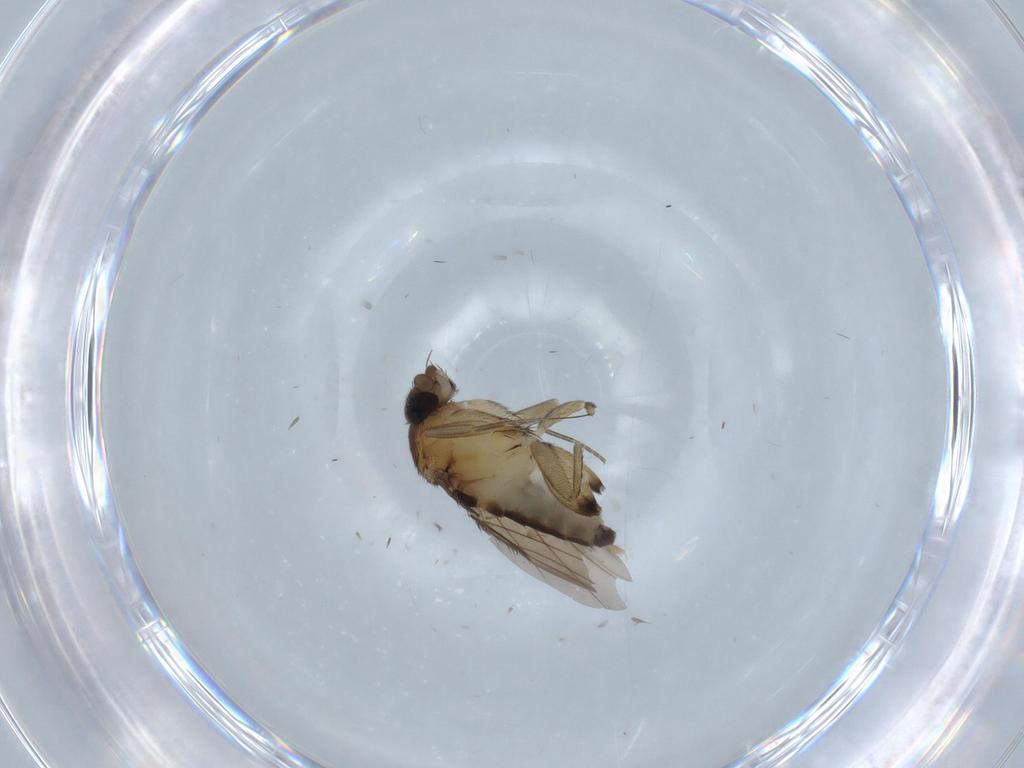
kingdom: Animalia
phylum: Arthropoda
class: Insecta
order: Diptera
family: Phoridae
